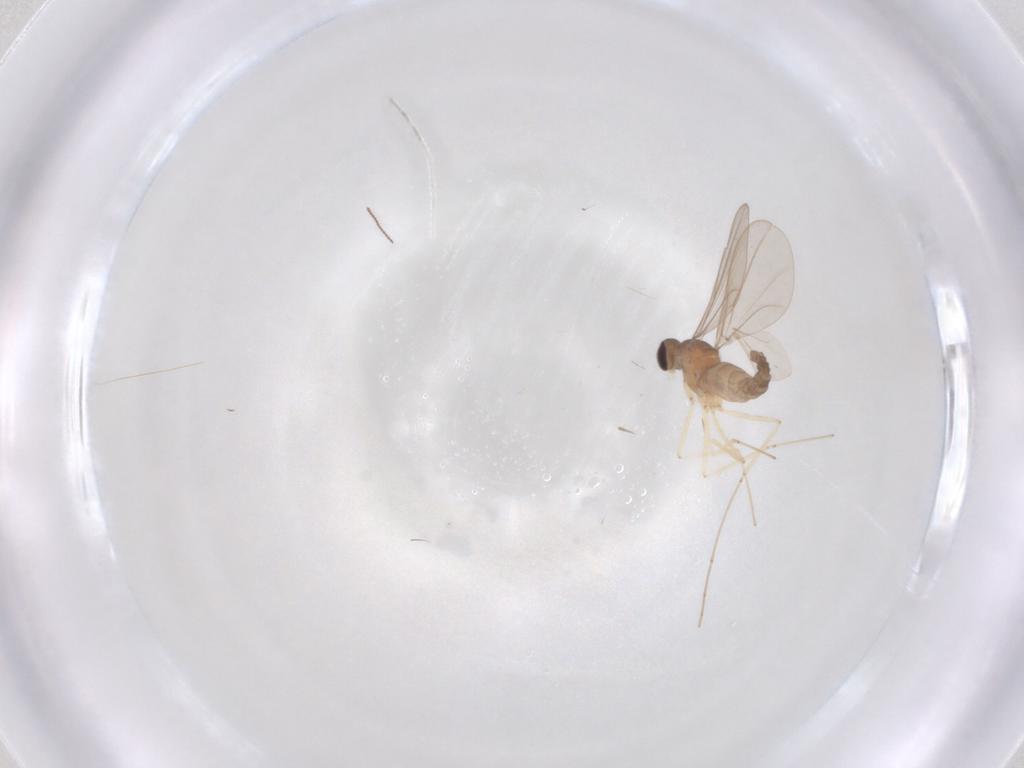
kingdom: Animalia
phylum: Arthropoda
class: Insecta
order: Diptera
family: Cecidomyiidae
